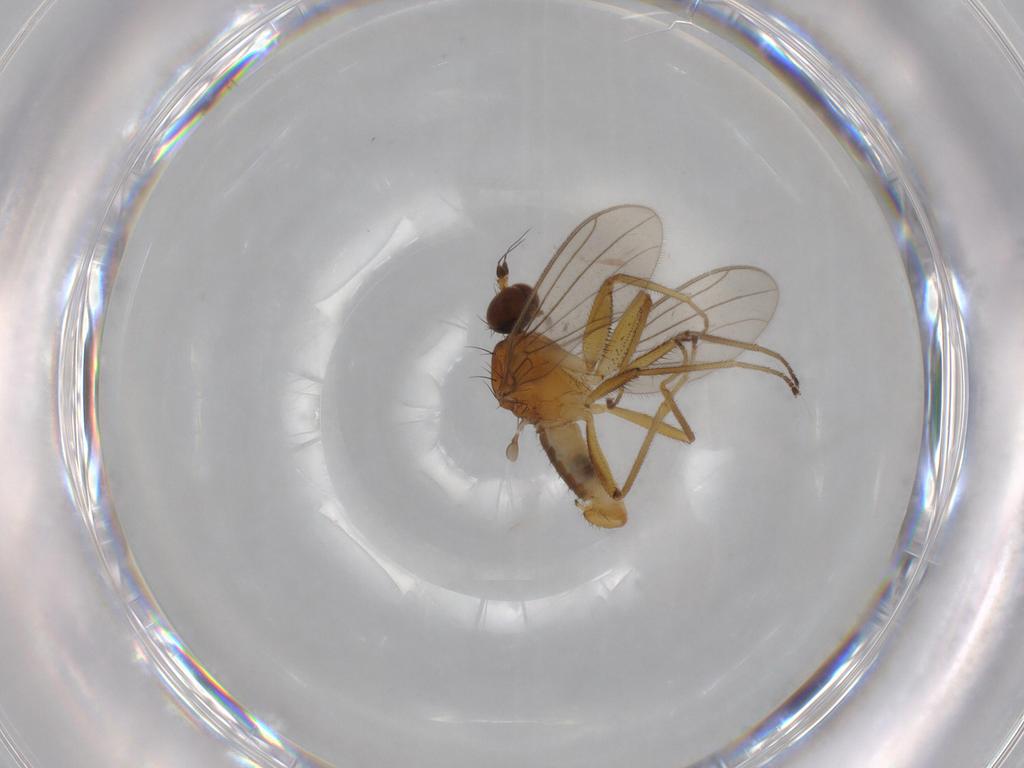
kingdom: Animalia
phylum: Arthropoda
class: Insecta
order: Diptera
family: Empididae
